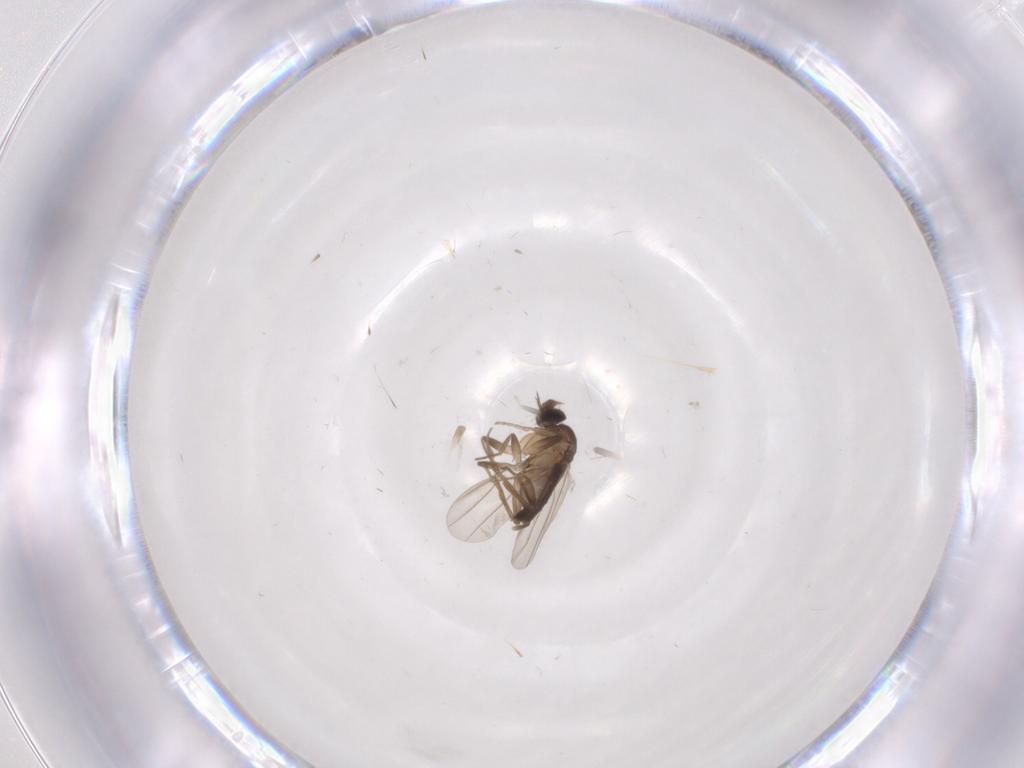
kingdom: Animalia
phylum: Arthropoda
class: Insecta
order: Diptera
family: Phoridae
